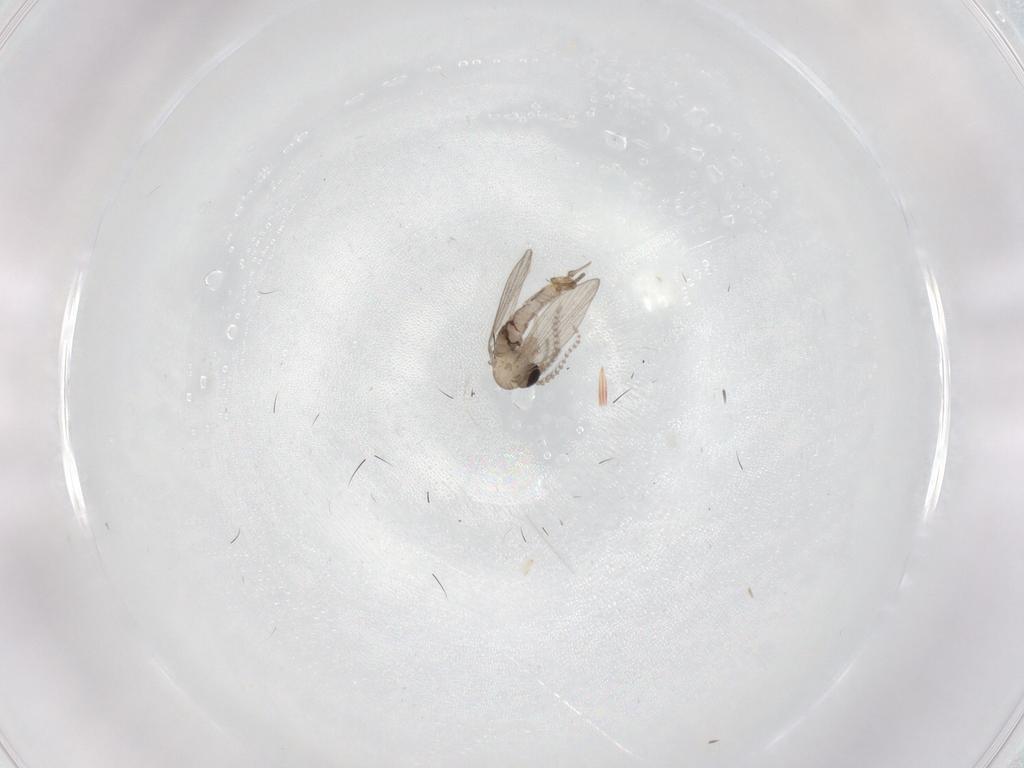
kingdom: Animalia
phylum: Arthropoda
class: Insecta
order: Diptera
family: Psychodidae
